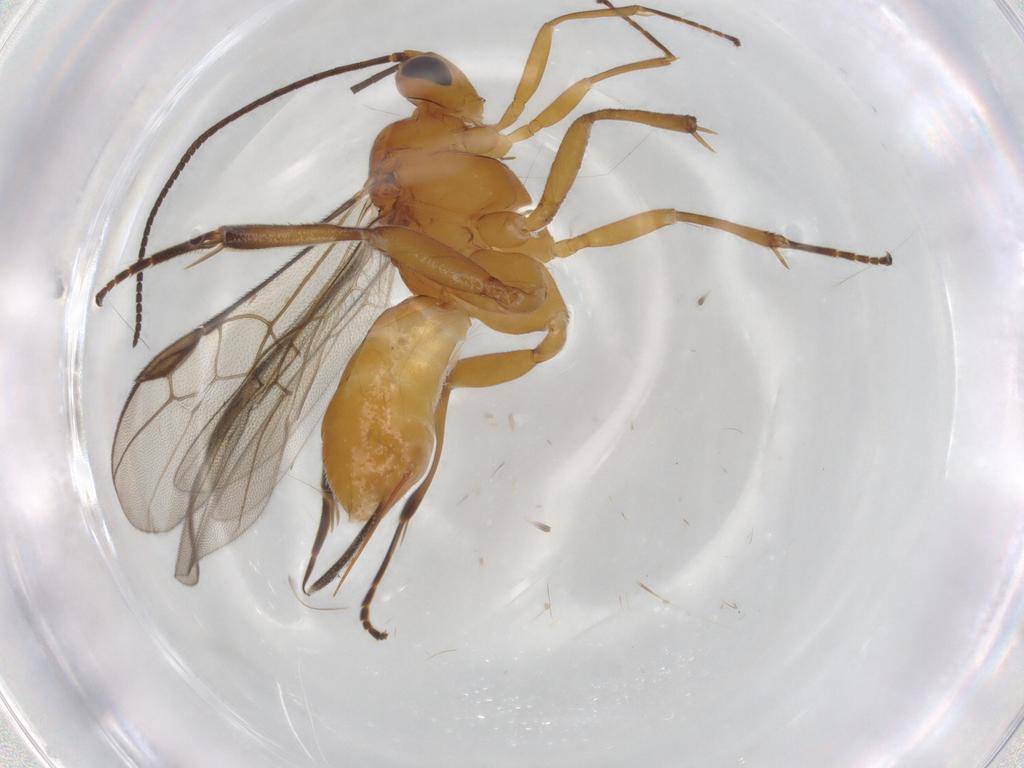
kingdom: Animalia
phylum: Arthropoda
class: Insecta
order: Hymenoptera
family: Braconidae
